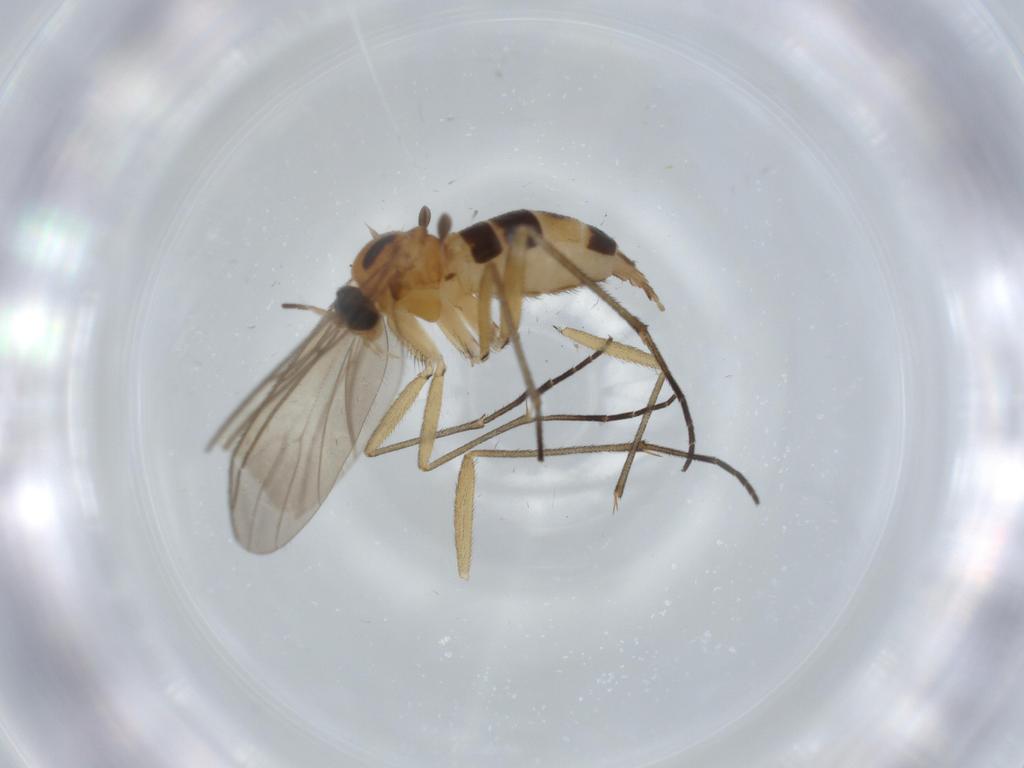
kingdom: Animalia
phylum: Arthropoda
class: Insecta
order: Diptera
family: Sciaridae
